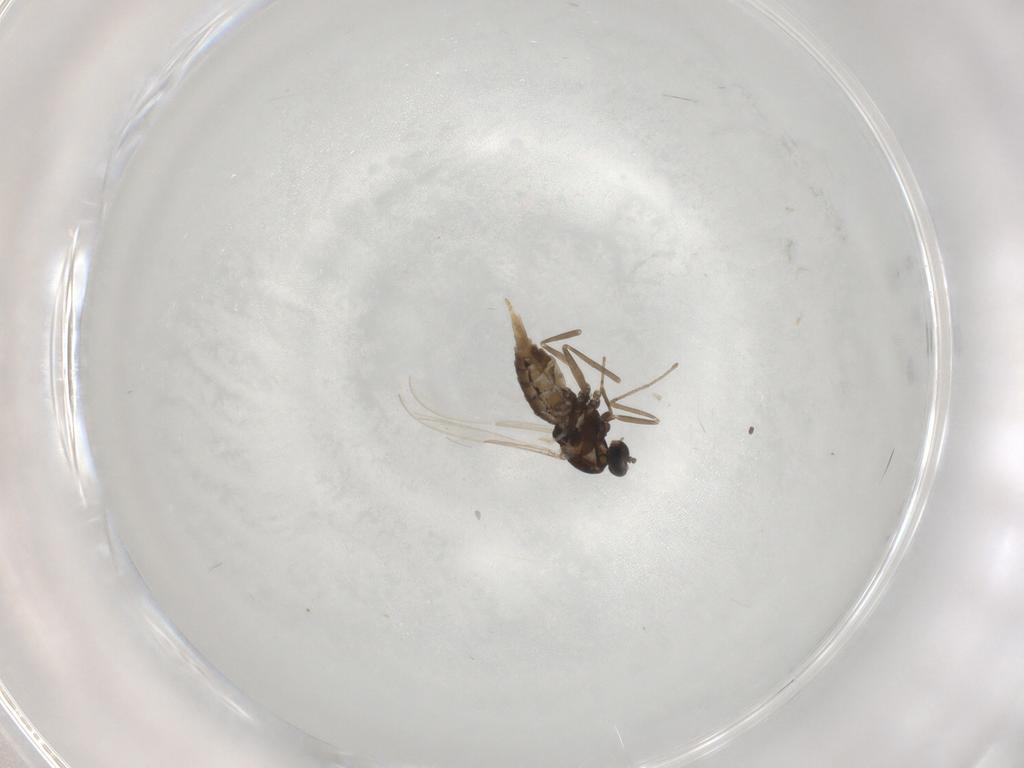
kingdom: Animalia
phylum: Arthropoda
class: Insecta
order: Diptera
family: Cecidomyiidae
